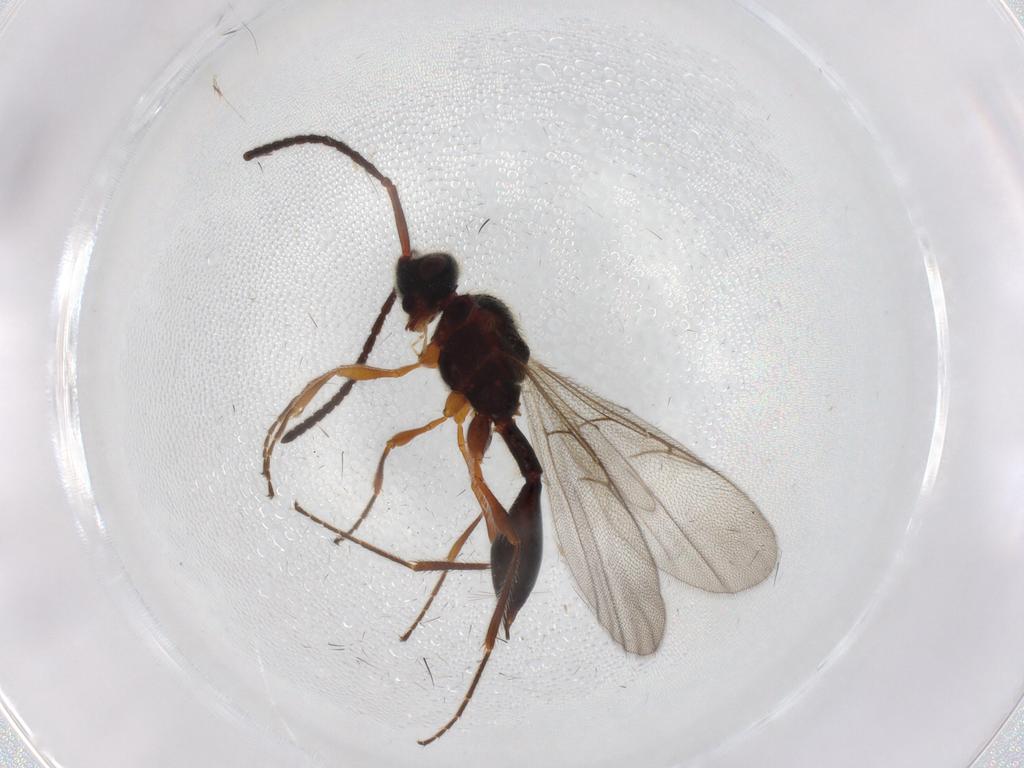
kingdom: Animalia
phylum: Arthropoda
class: Insecta
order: Hymenoptera
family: Diapriidae
